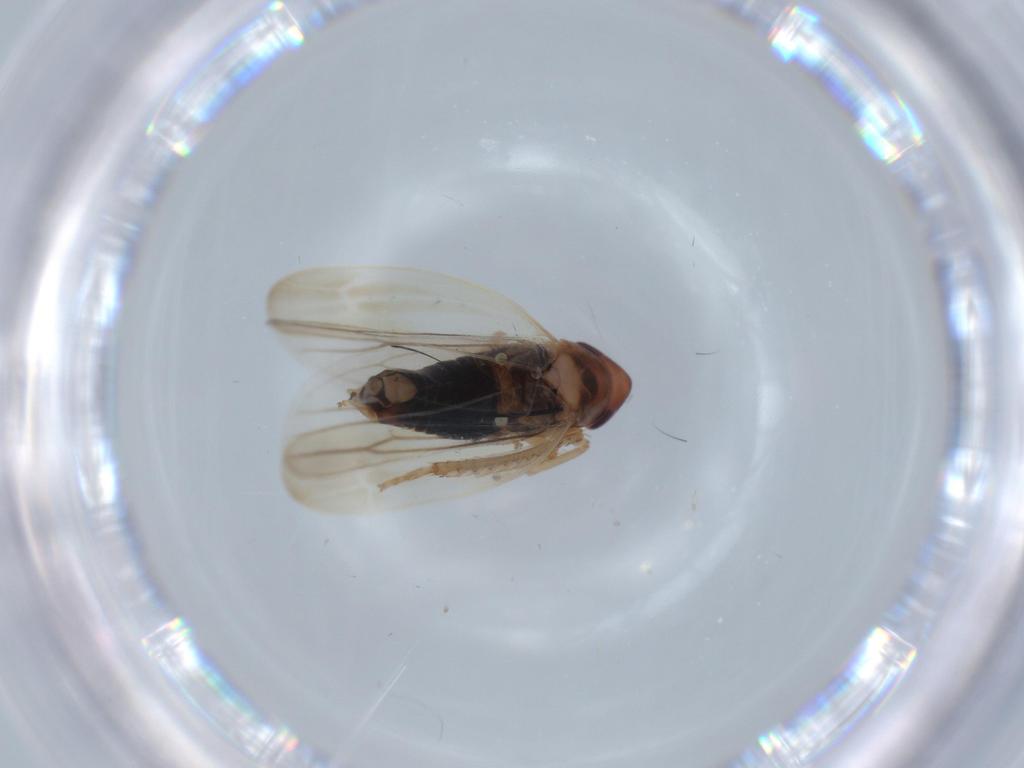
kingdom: Animalia
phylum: Arthropoda
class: Insecta
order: Hemiptera
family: Cicadellidae
